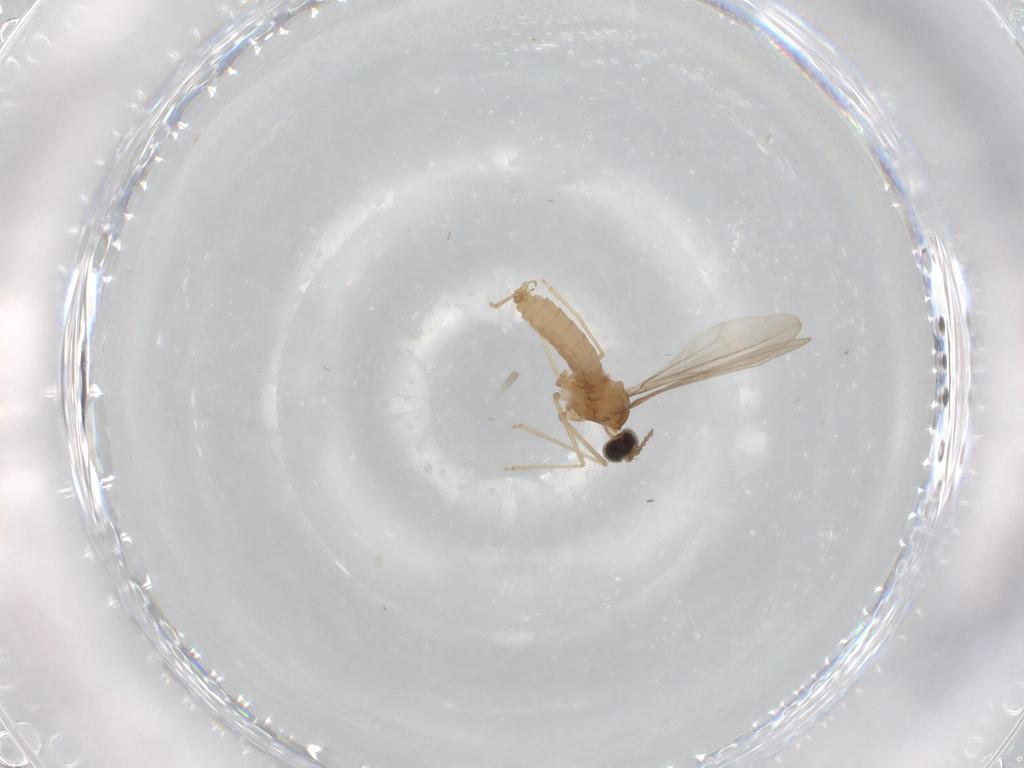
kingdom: Animalia
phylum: Arthropoda
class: Insecta
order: Diptera
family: Cecidomyiidae
